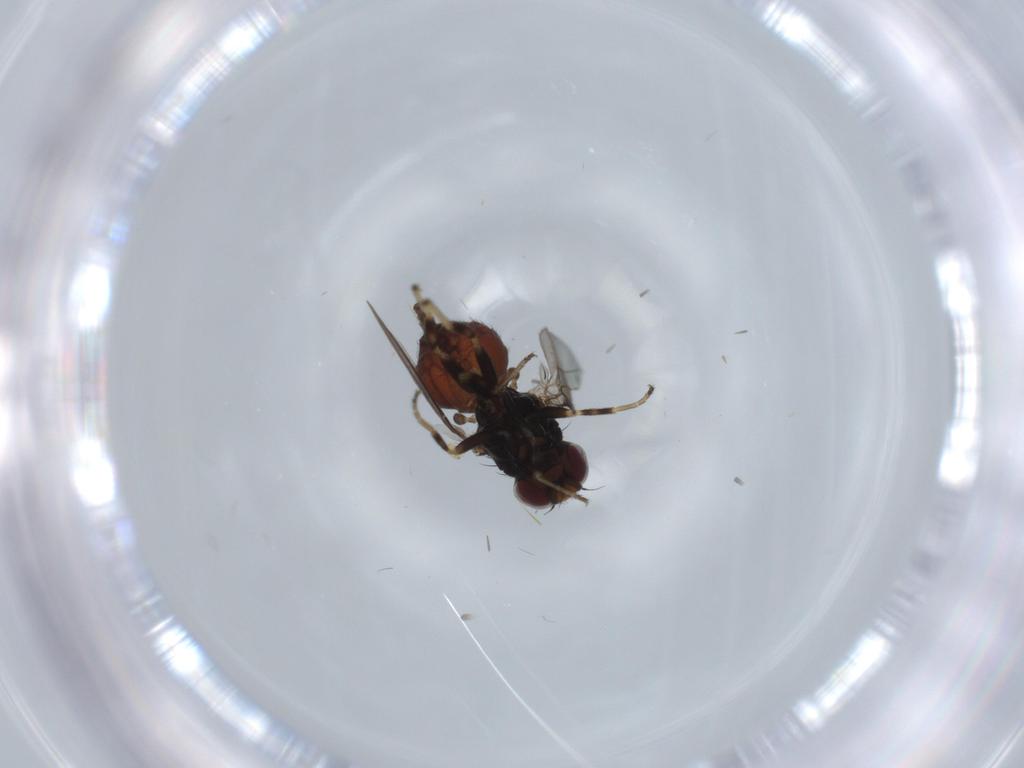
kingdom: Animalia
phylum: Arthropoda
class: Insecta
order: Diptera
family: Chloropidae
